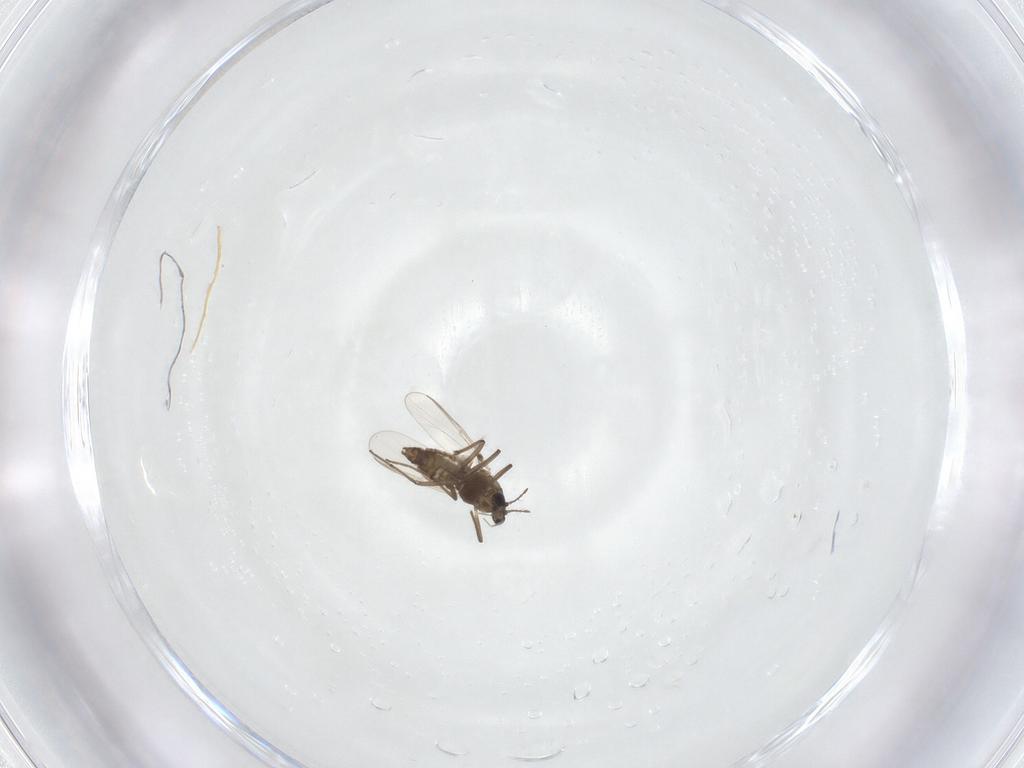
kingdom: Animalia
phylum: Arthropoda
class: Insecta
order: Diptera
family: Chironomidae
